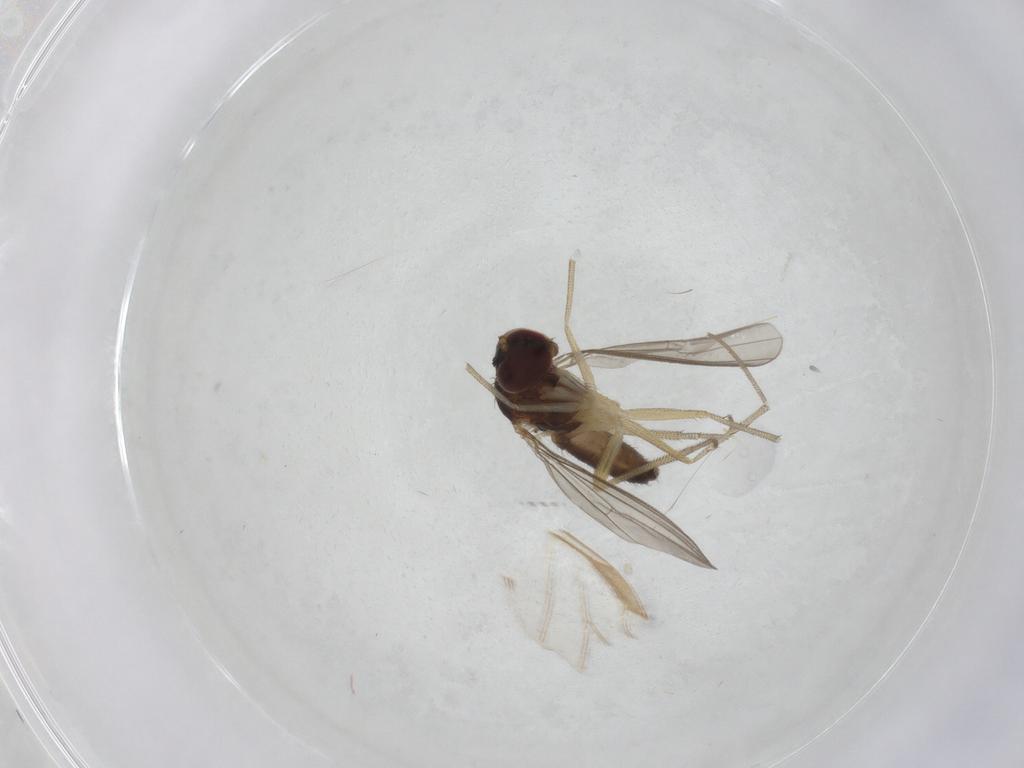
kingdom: Animalia
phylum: Arthropoda
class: Insecta
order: Diptera
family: Dolichopodidae
